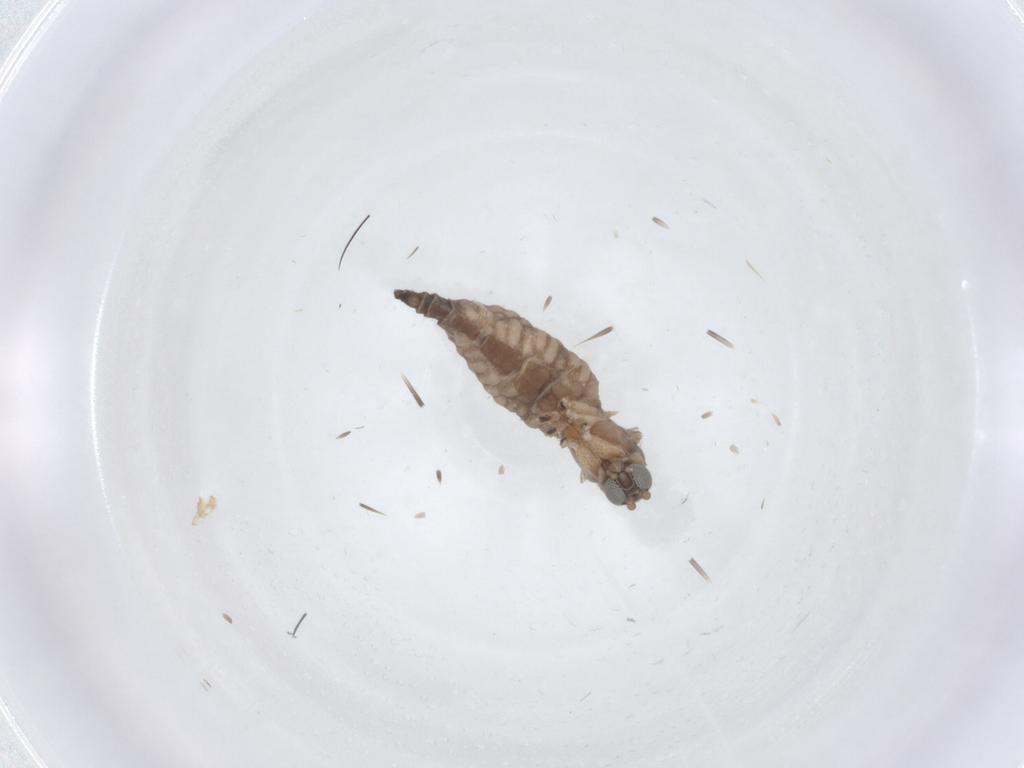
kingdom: Animalia
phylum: Arthropoda
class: Insecta
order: Diptera
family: Sciaridae
